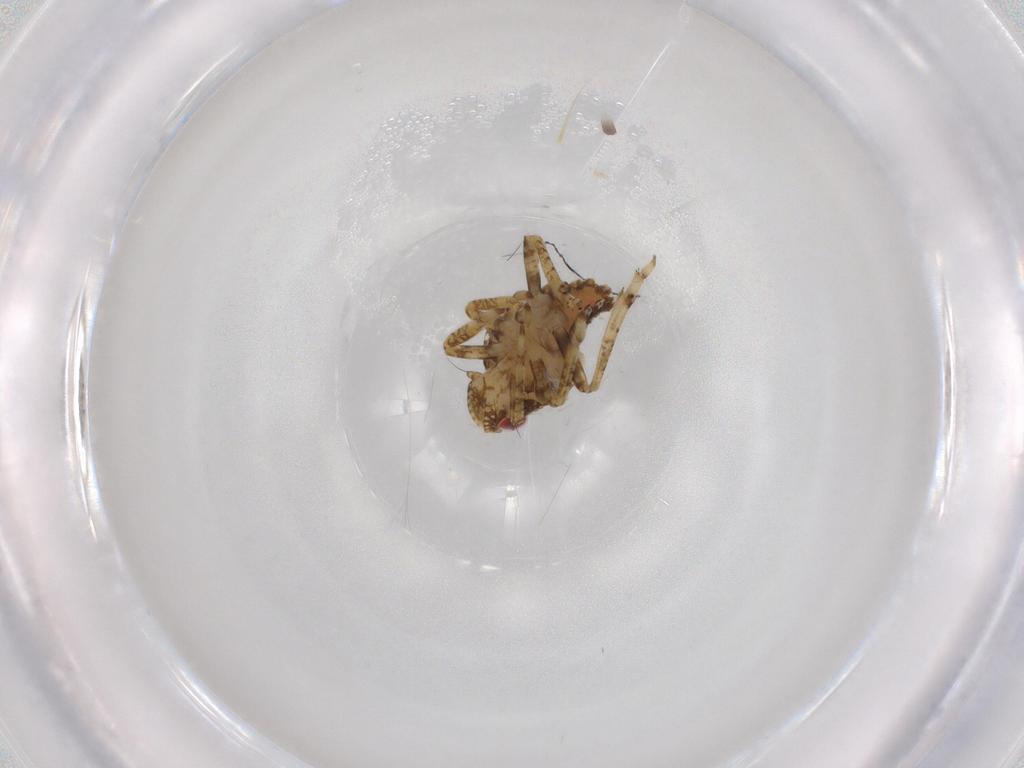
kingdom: Animalia
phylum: Arthropoda
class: Insecta
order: Hemiptera
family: Issidae
